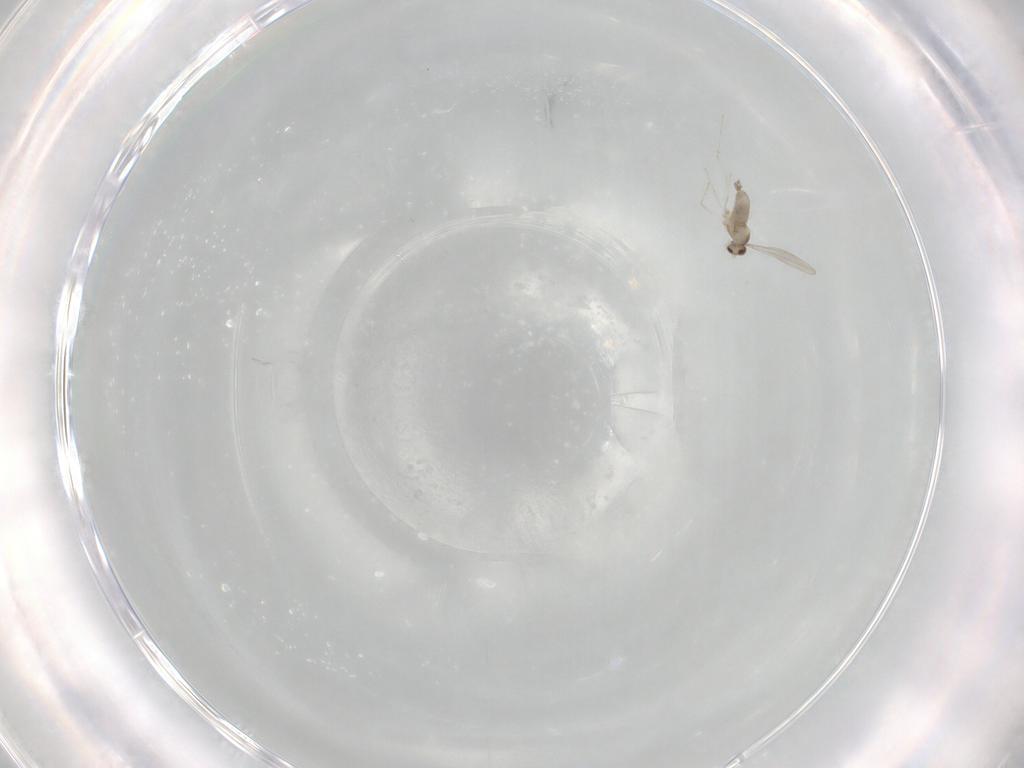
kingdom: Animalia
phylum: Arthropoda
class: Insecta
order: Diptera
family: Cecidomyiidae
